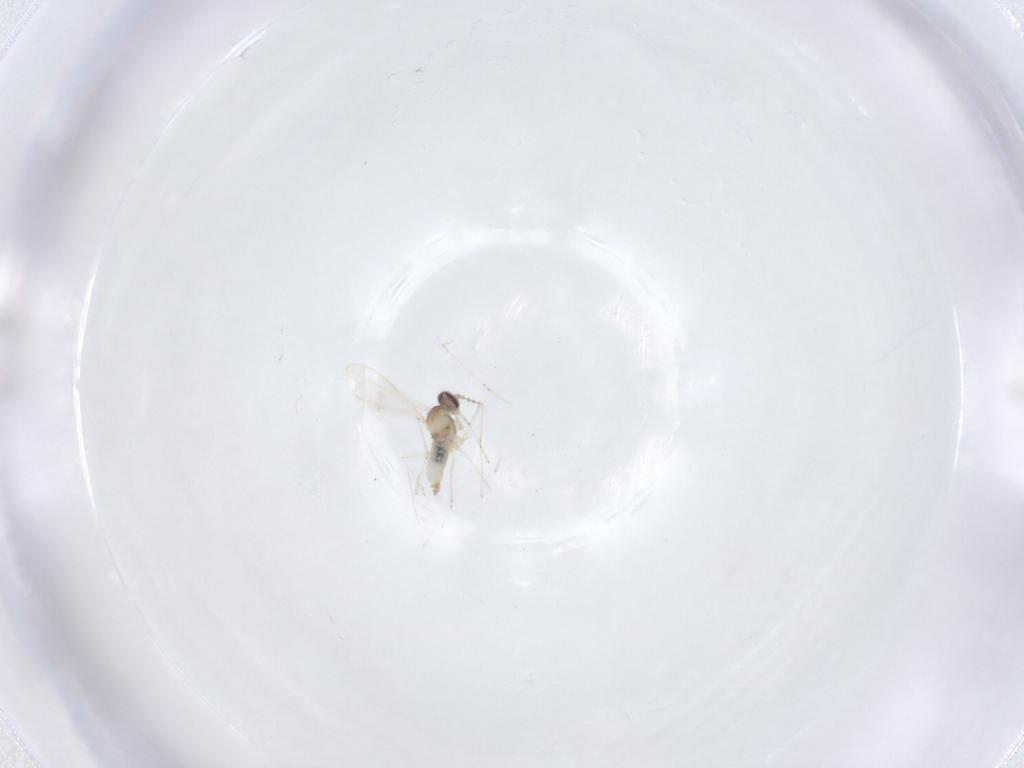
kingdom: Animalia
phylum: Arthropoda
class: Insecta
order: Diptera
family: Cecidomyiidae
